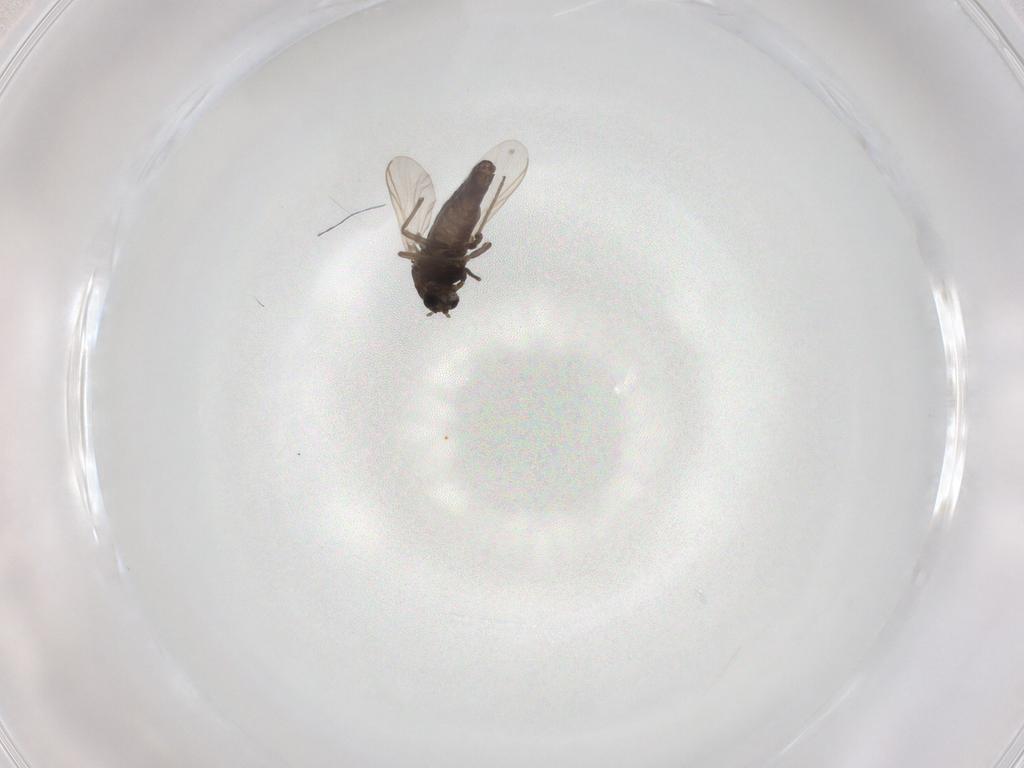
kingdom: Animalia
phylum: Arthropoda
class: Insecta
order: Diptera
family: Chironomidae
